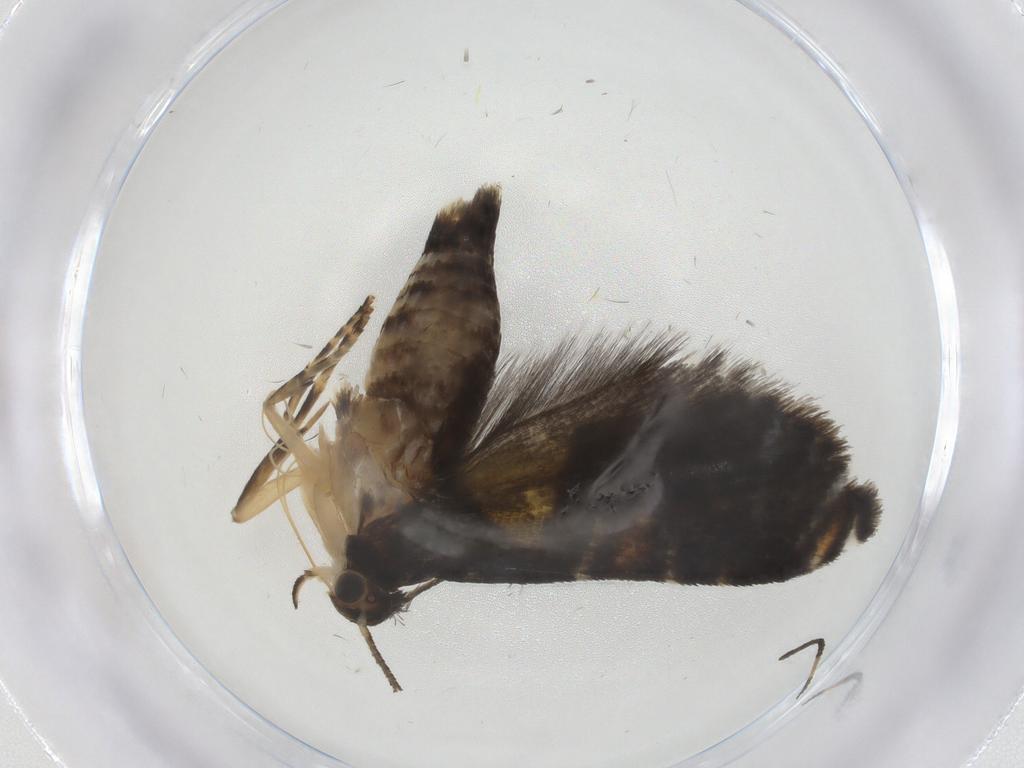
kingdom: Animalia
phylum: Arthropoda
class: Insecta
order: Lepidoptera
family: Glyphipterigidae
